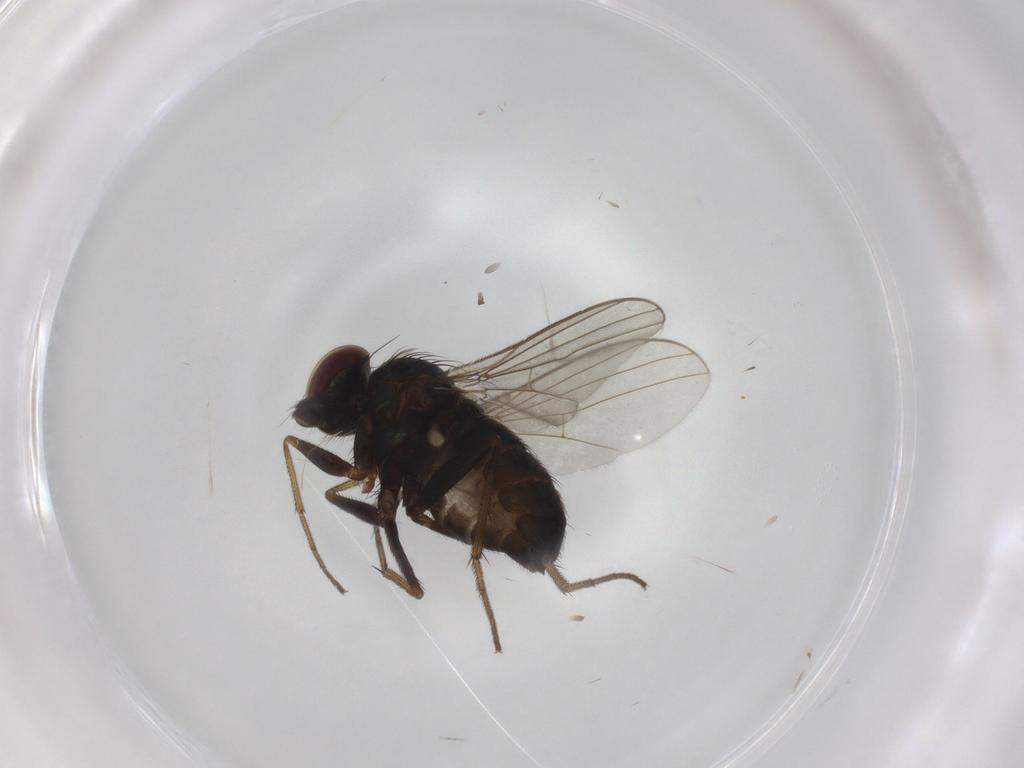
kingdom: Animalia
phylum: Arthropoda
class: Insecta
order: Diptera
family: Dolichopodidae
